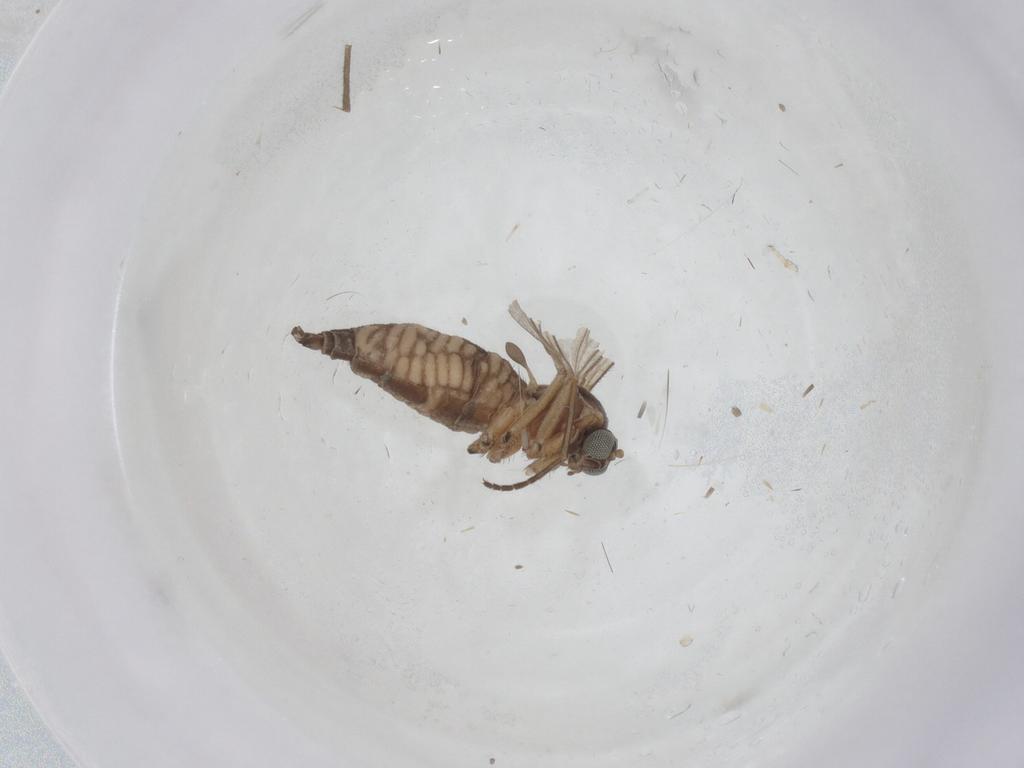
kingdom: Animalia
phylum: Arthropoda
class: Insecta
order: Diptera
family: Sciaridae
